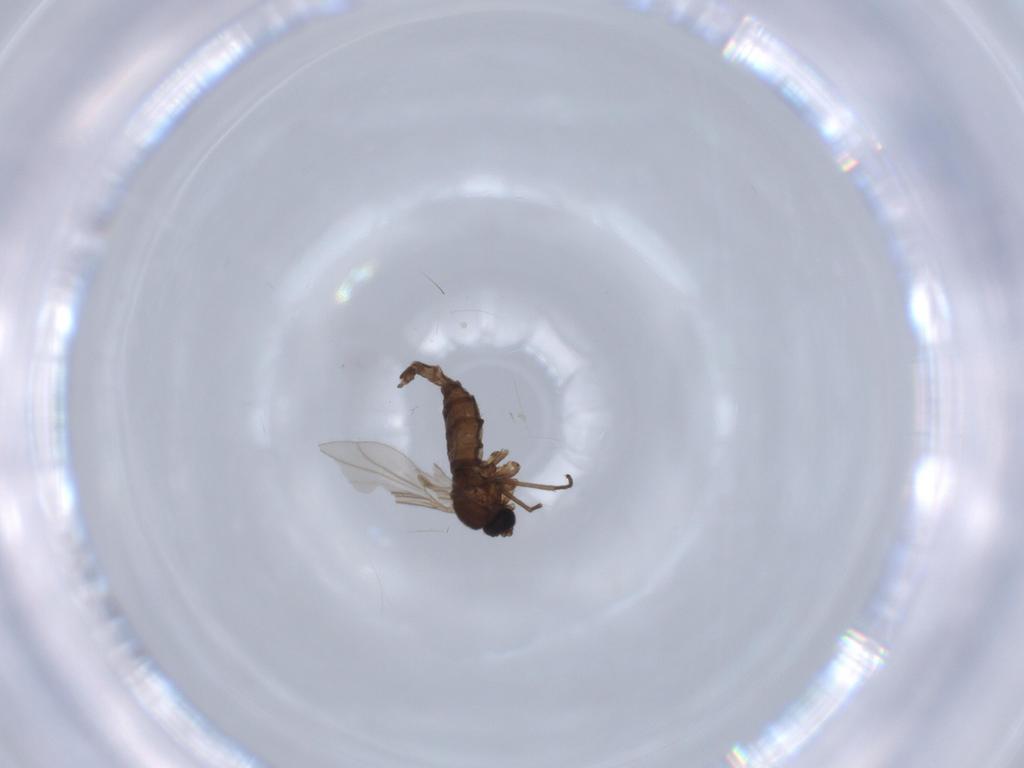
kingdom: Animalia
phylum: Arthropoda
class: Insecta
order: Diptera
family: Sciaridae
